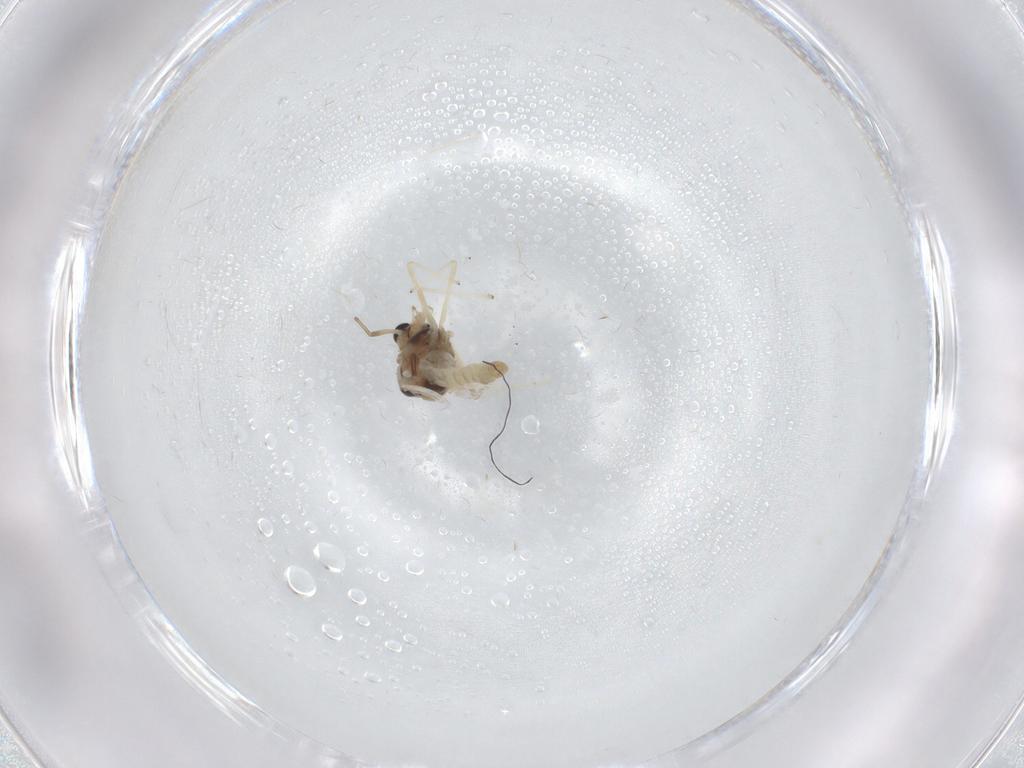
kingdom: Animalia
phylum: Arthropoda
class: Insecta
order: Diptera
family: Chironomidae
